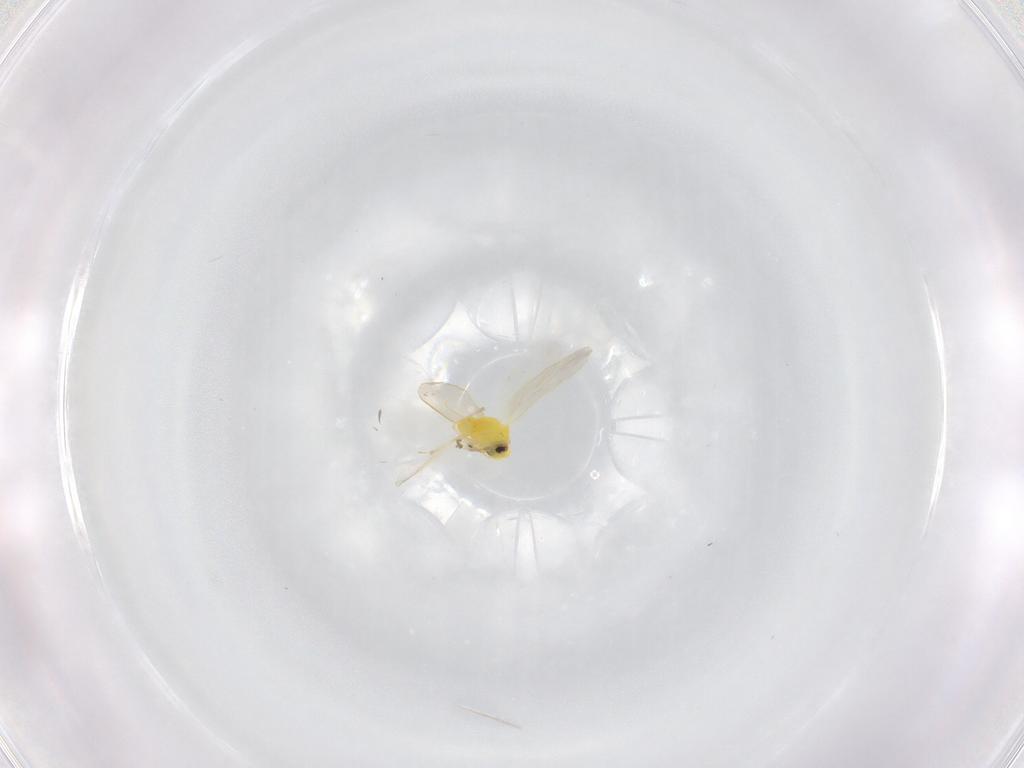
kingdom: Animalia
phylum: Arthropoda
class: Insecta
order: Hemiptera
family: Aleyrodidae
